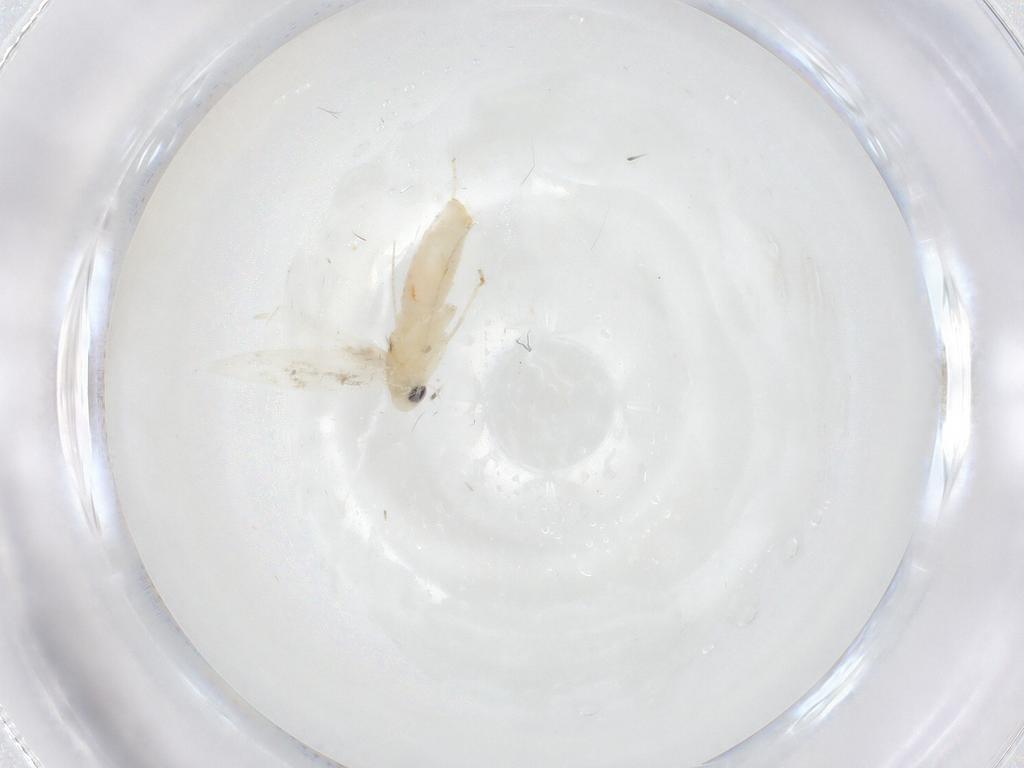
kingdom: Animalia
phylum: Arthropoda
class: Insecta
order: Lepidoptera
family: Nepticulidae
